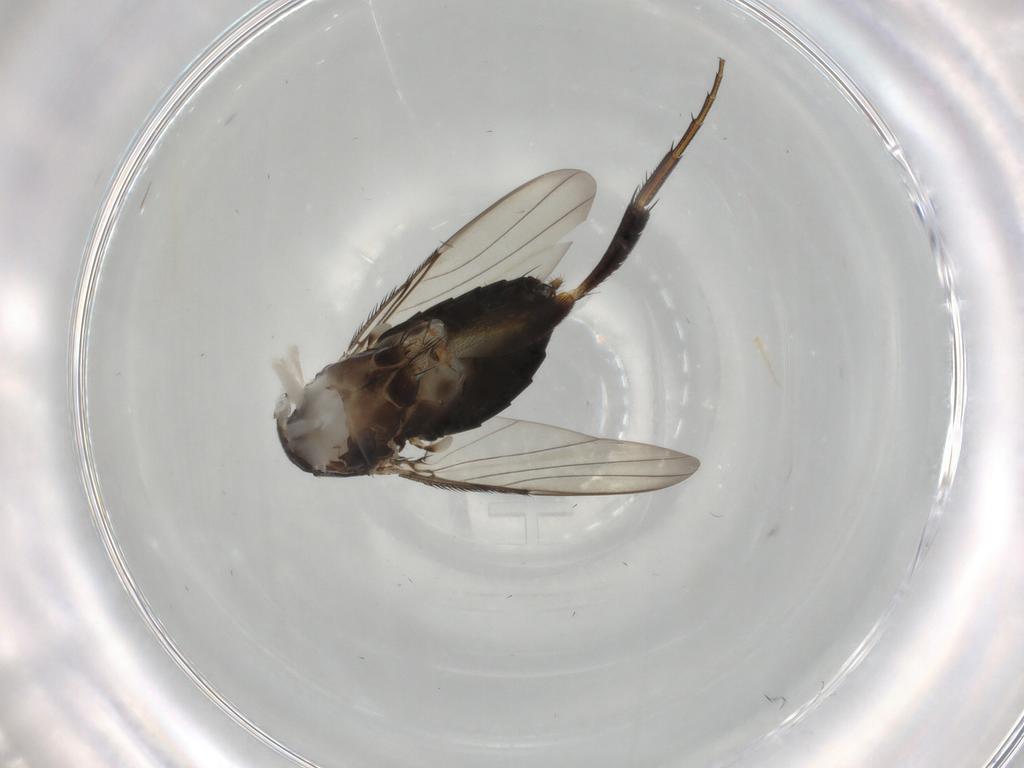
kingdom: Animalia
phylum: Arthropoda
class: Insecta
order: Diptera
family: Phoridae
